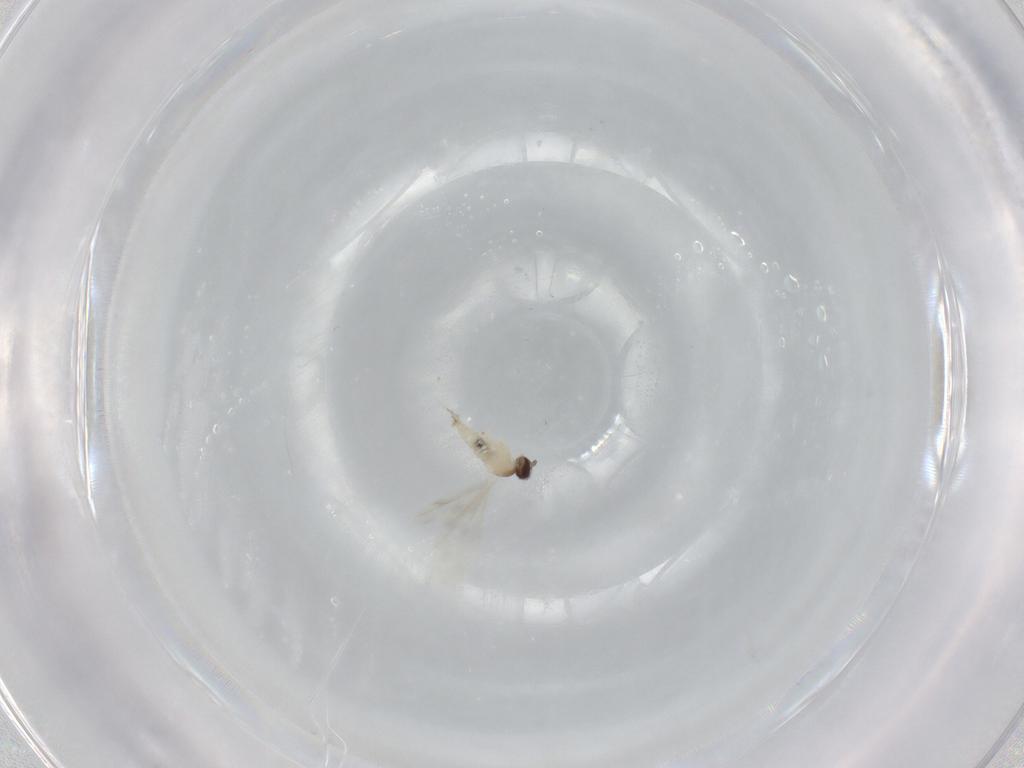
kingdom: Animalia
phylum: Arthropoda
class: Insecta
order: Diptera
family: Cecidomyiidae
